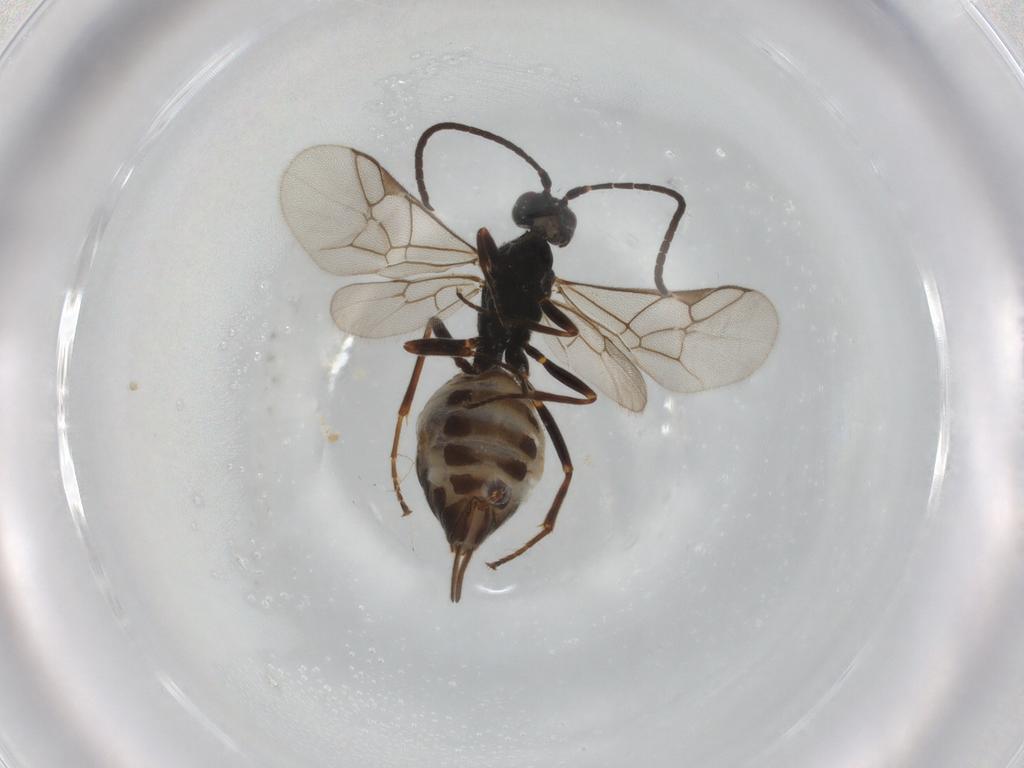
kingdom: Animalia
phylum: Arthropoda
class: Insecta
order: Hymenoptera
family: Ichneumonidae
